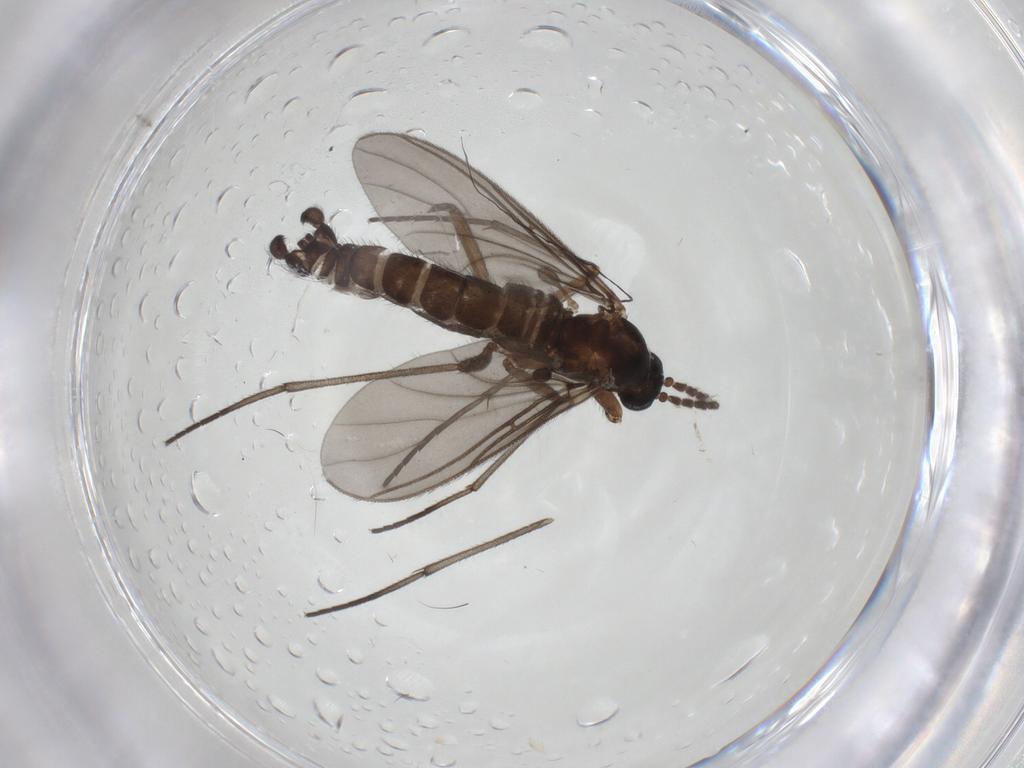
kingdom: Animalia
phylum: Arthropoda
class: Insecta
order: Diptera
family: Sciaridae
